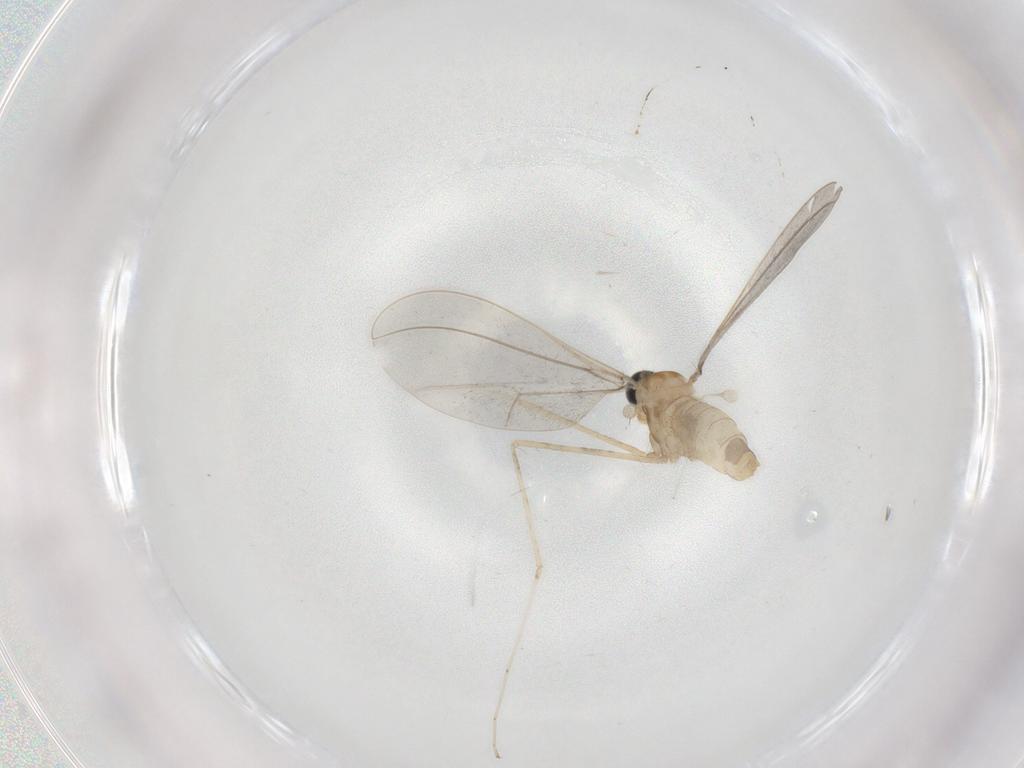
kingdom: Animalia
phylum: Arthropoda
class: Insecta
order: Diptera
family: Cecidomyiidae
